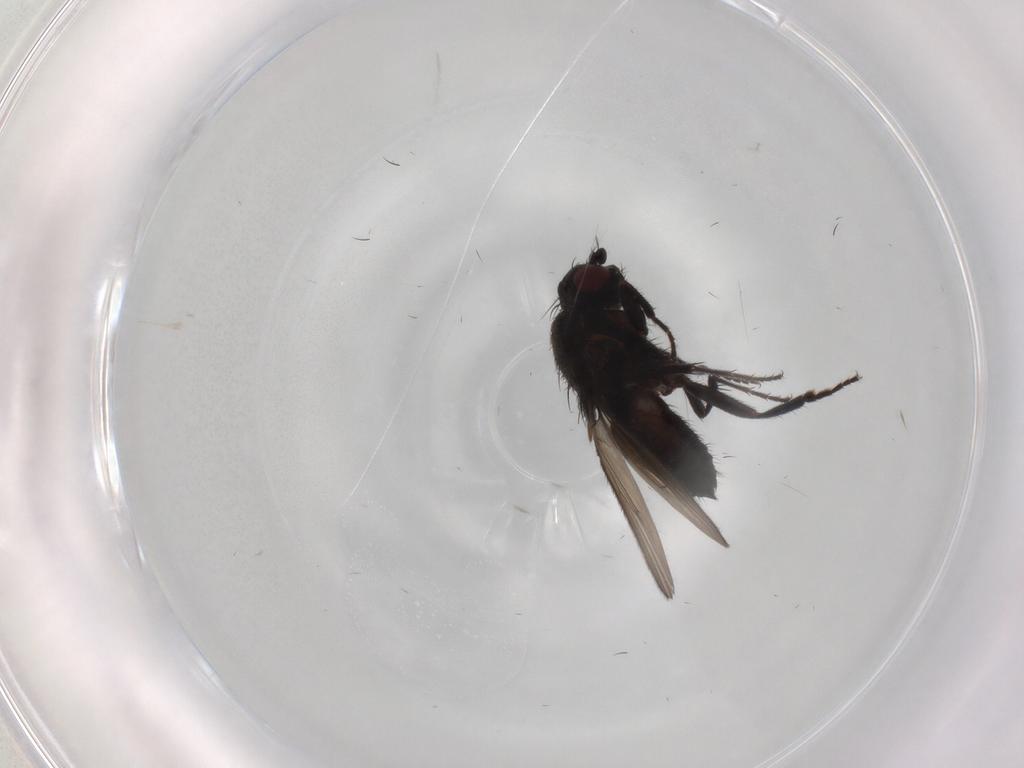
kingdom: Animalia
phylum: Arthropoda
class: Insecta
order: Diptera
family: Sphaeroceridae
